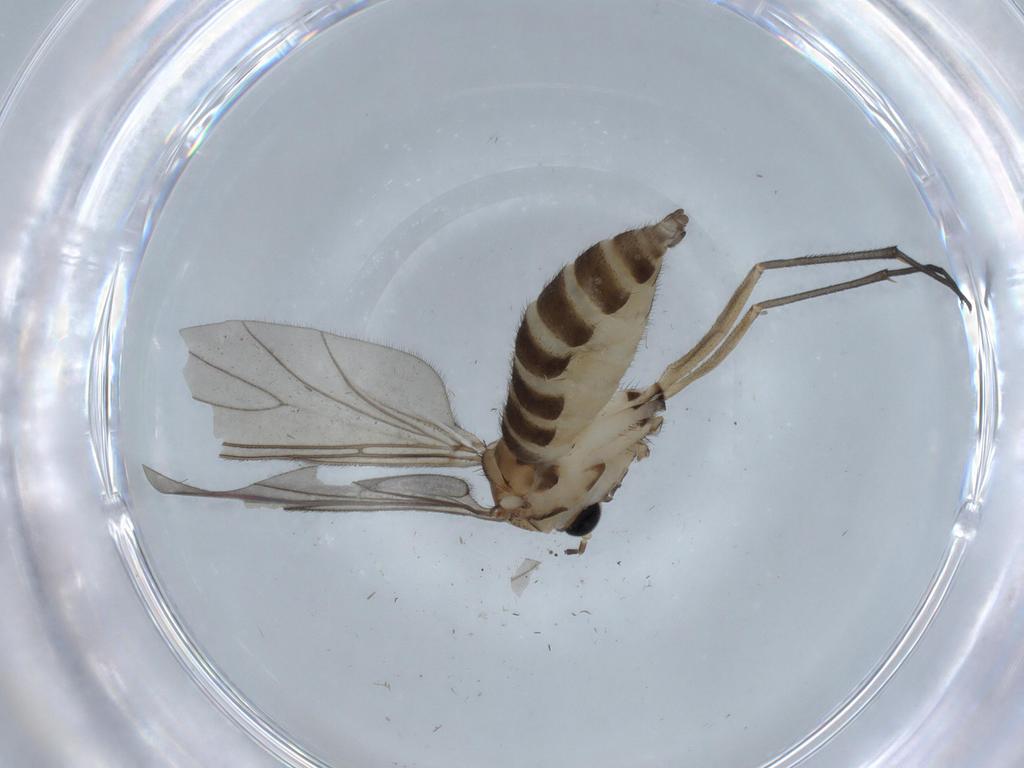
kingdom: Animalia
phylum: Arthropoda
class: Insecta
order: Diptera
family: Sciaridae
